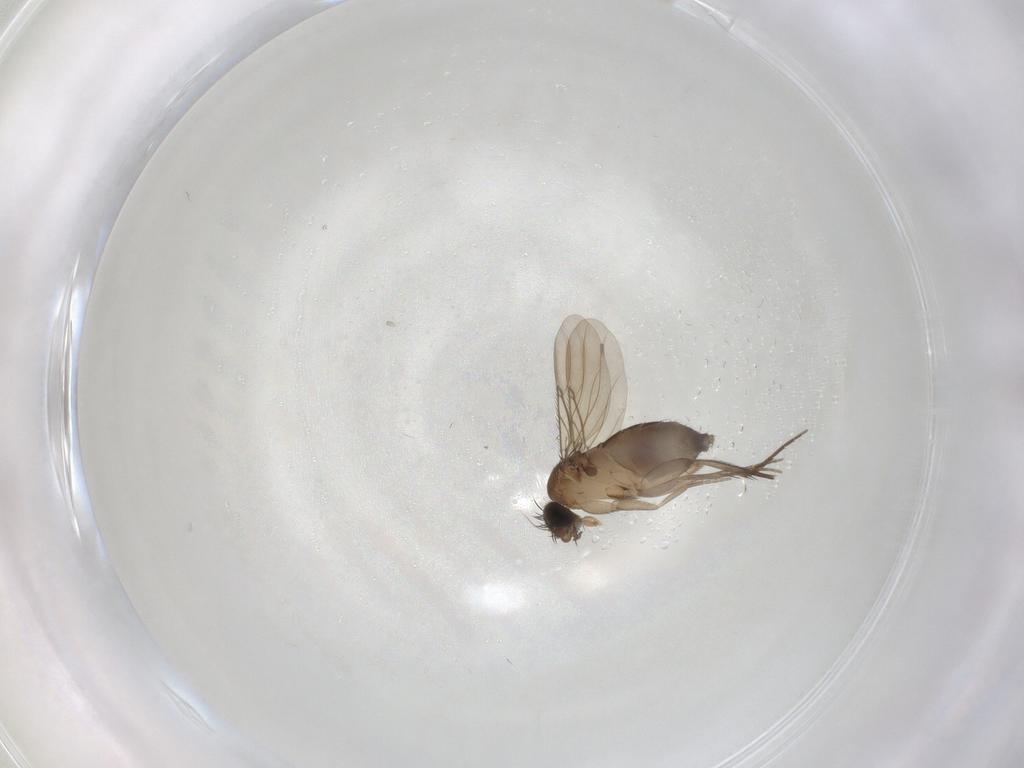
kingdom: Animalia
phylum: Arthropoda
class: Insecta
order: Diptera
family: Phoridae
